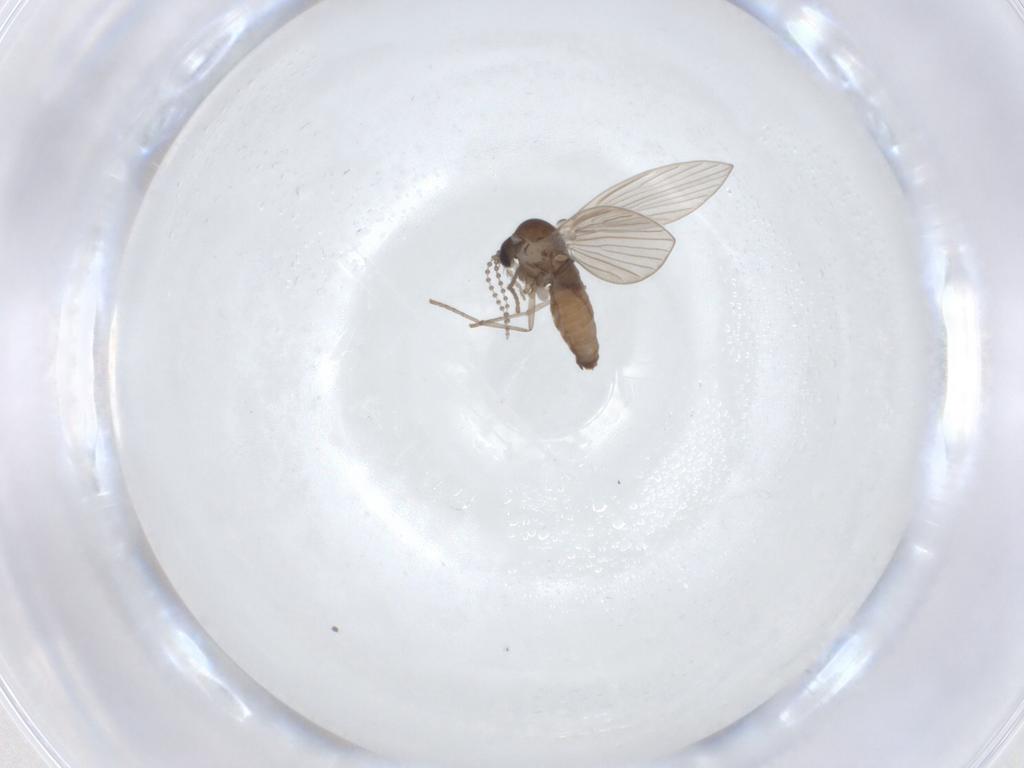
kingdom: Animalia
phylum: Arthropoda
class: Insecta
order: Diptera
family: Psychodidae
